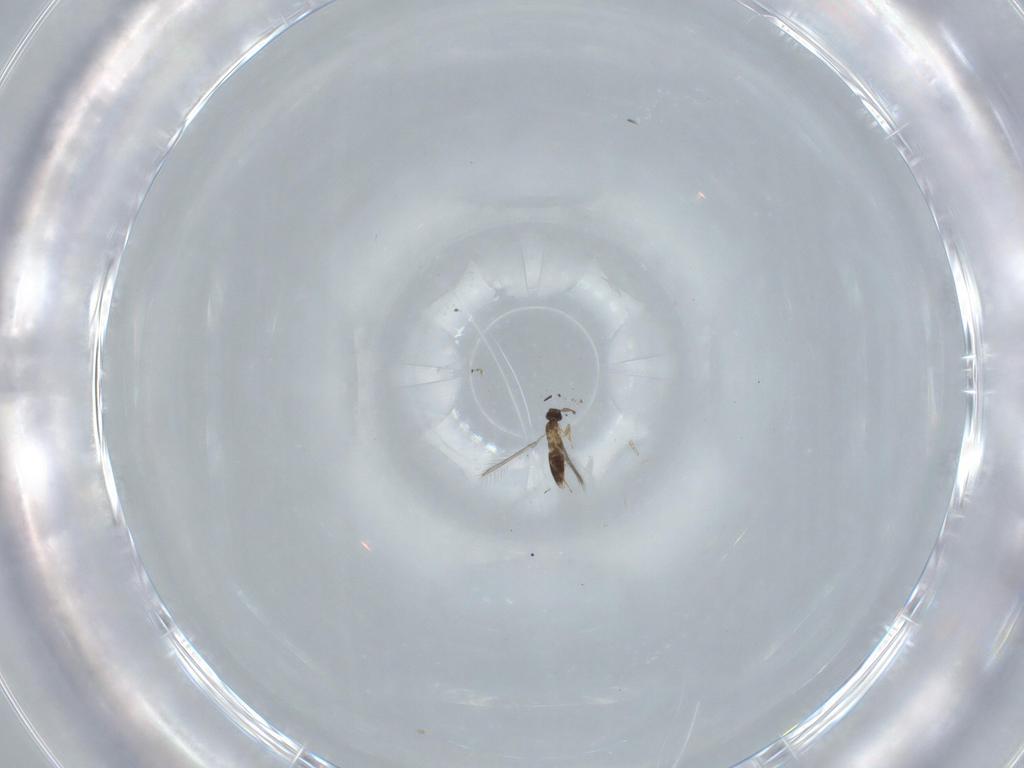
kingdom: Animalia
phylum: Arthropoda
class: Insecta
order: Hymenoptera
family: Mymaridae
